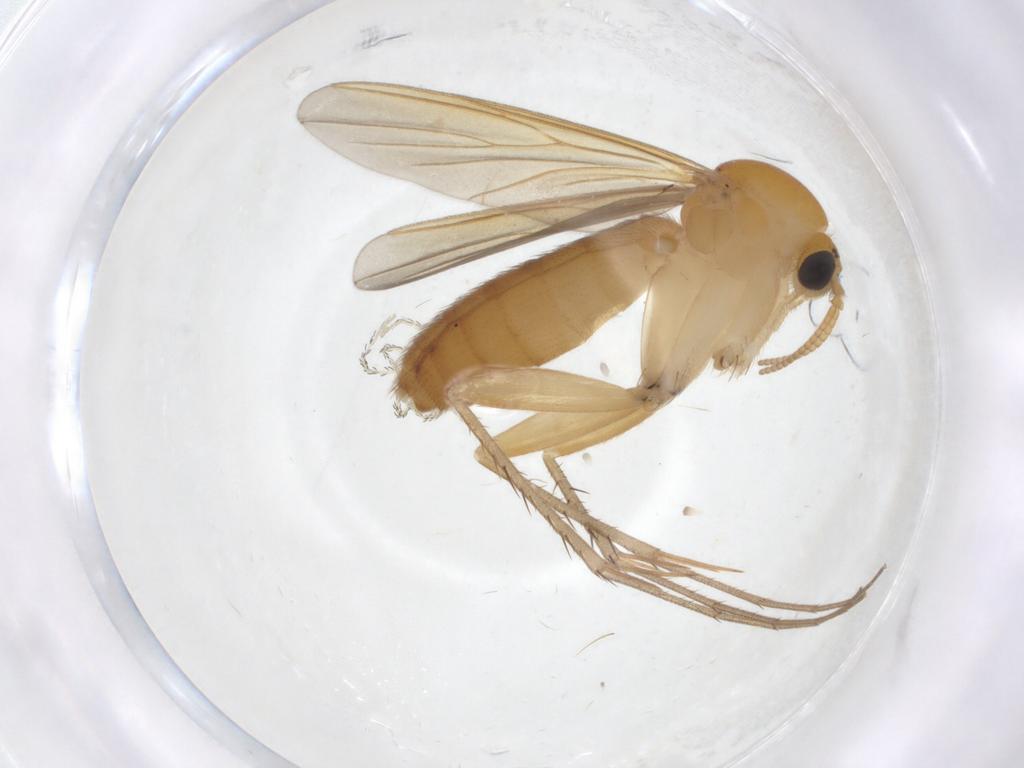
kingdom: Animalia
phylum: Arthropoda
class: Insecta
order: Diptera
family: Mycetophilidae
